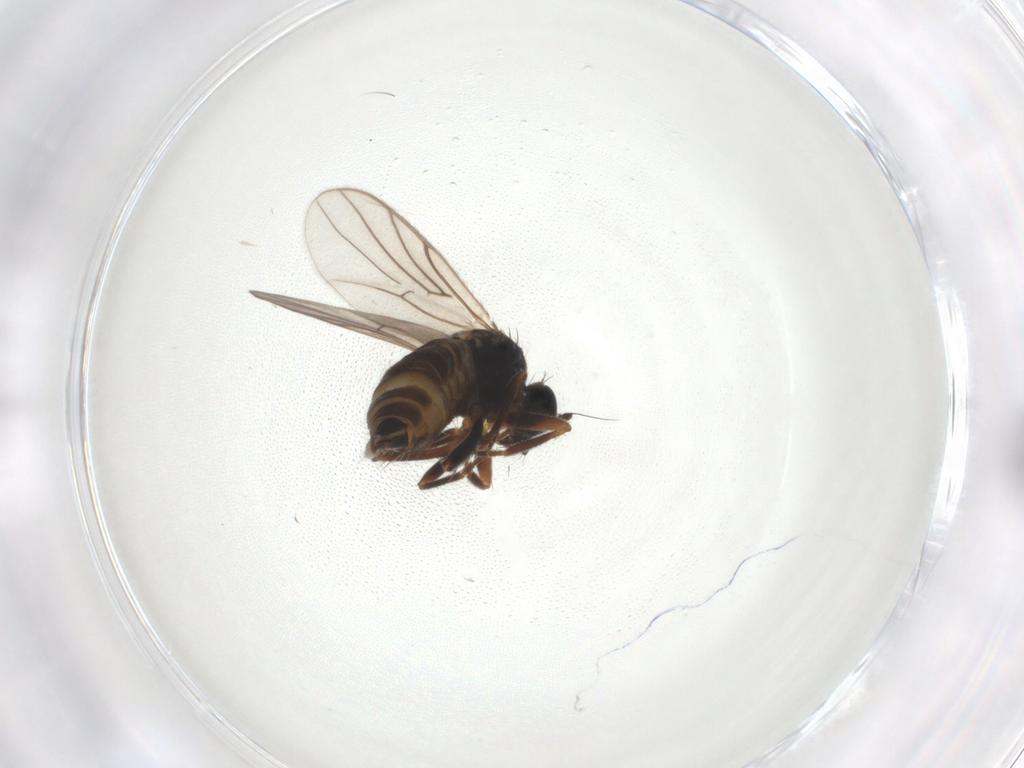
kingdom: Animalia
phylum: Arthropoda
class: Insecta
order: Diptera
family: Hybotidae
